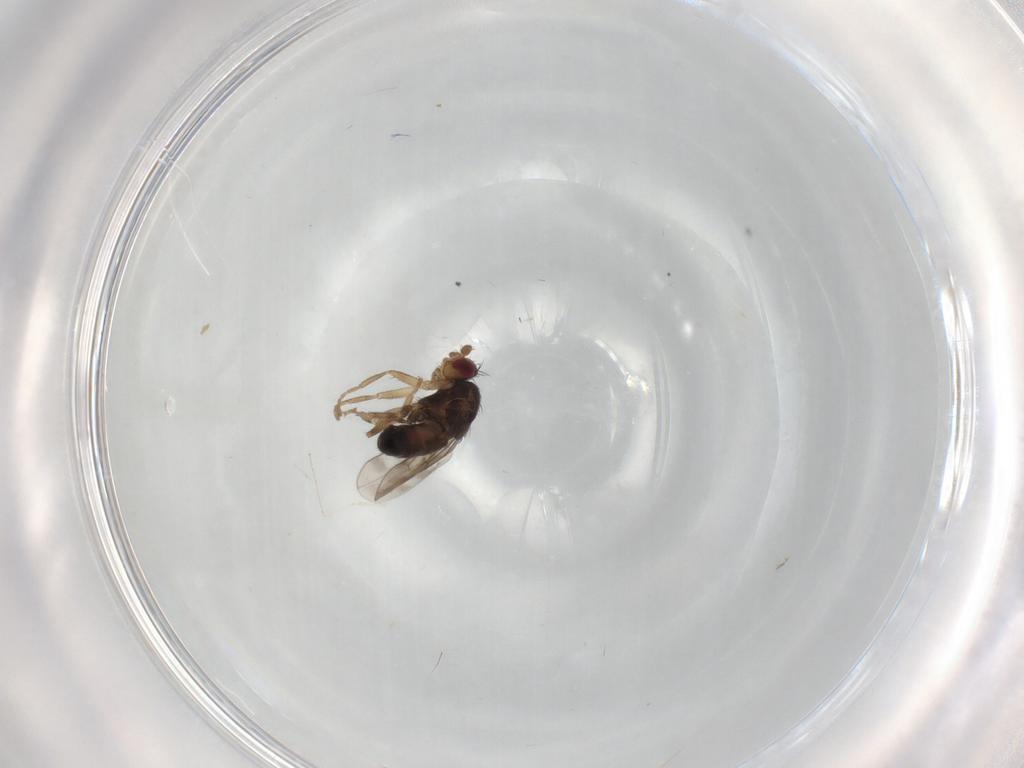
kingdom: Animalia
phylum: Arthropoda
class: Insecta
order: Diptera
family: Sphaeroceridae
